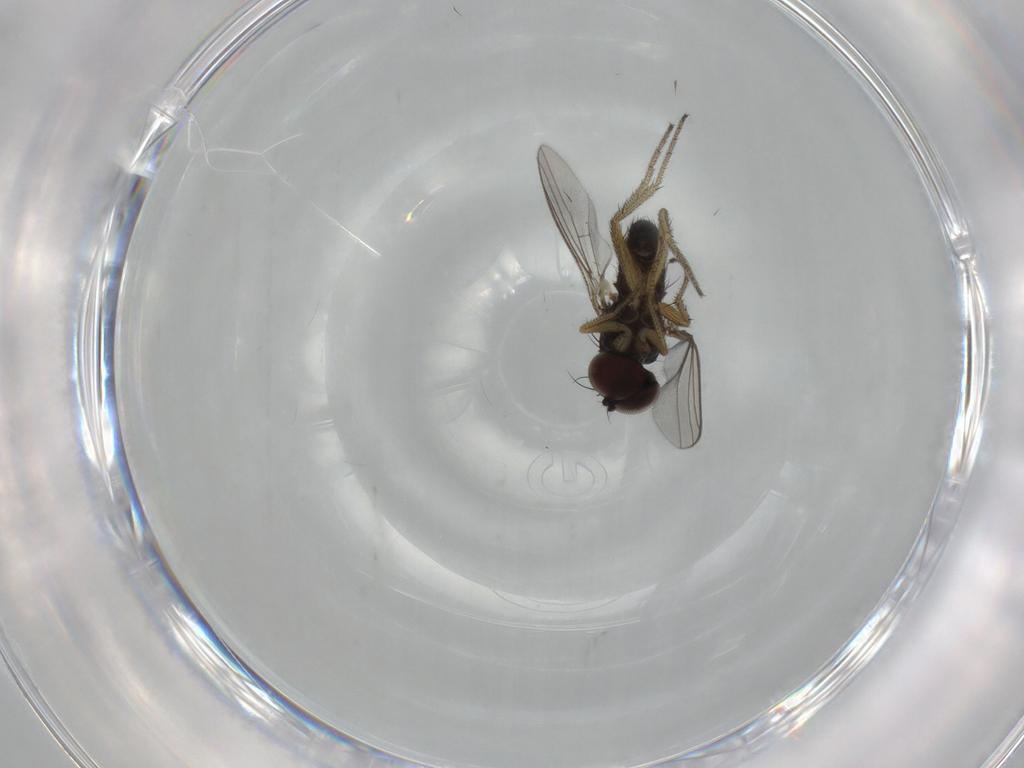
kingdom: Animalia
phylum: Arthropoda
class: Insecta
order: Diptera
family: Dolichopodidae
